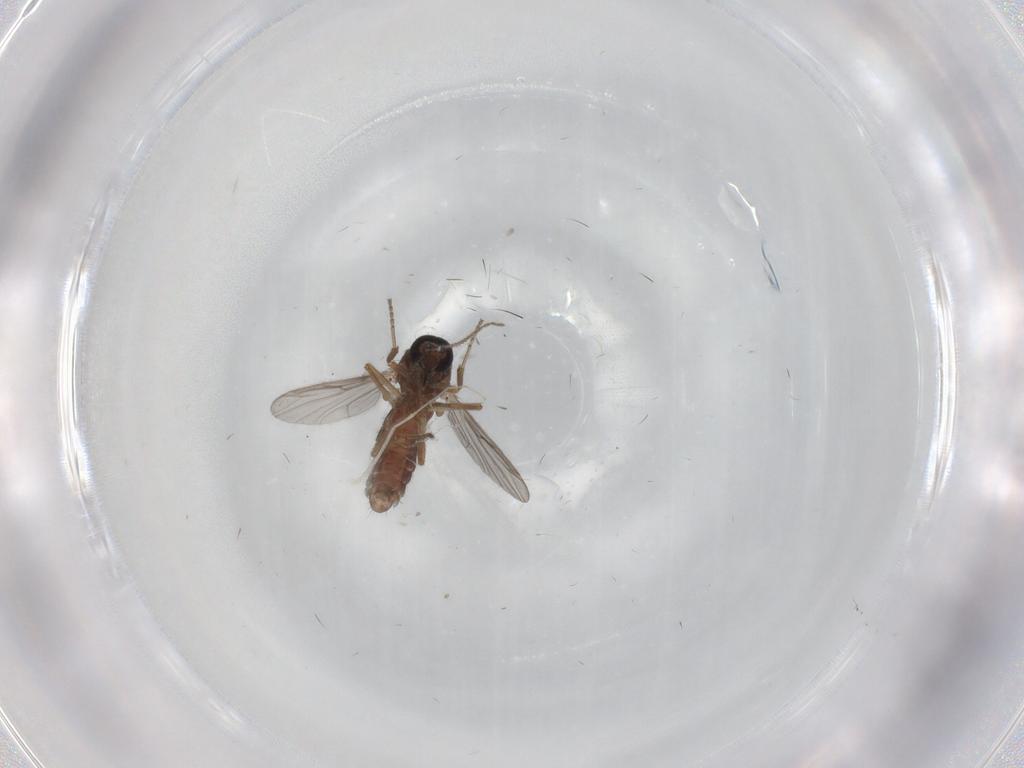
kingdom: Animalia
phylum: Arthropoda
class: Insecta
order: Diptera
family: Ceratopogonidae
